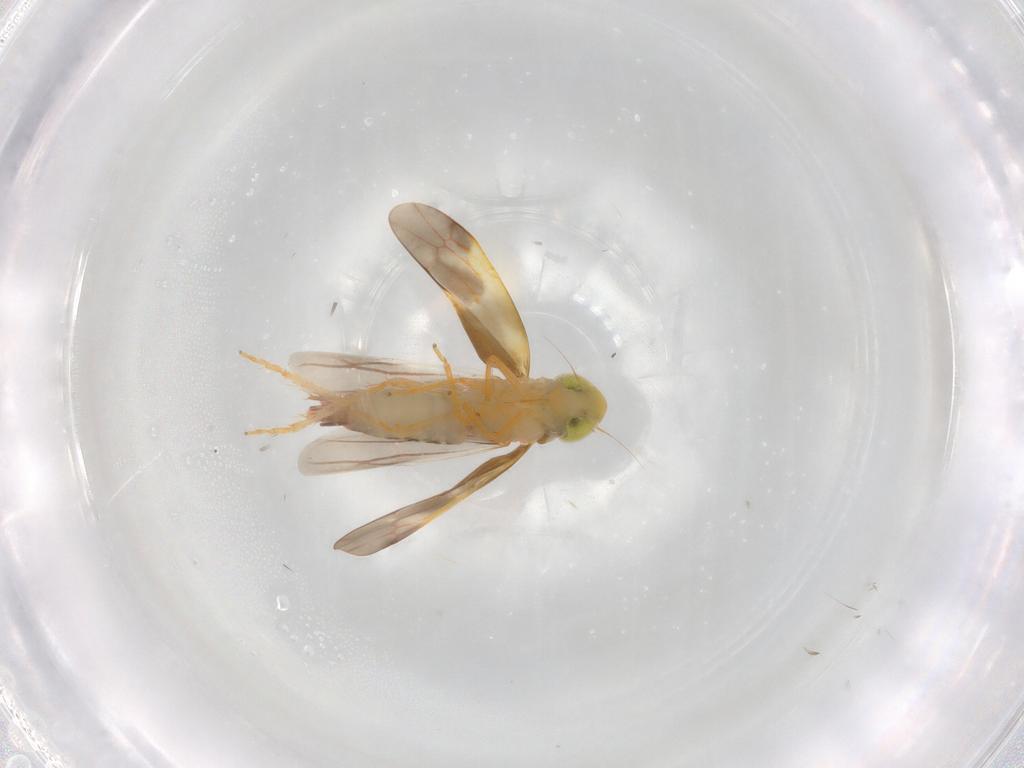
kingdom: Animalia
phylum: Arthropoda
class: Insecta
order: Hemiptera
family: Cicadellidae
